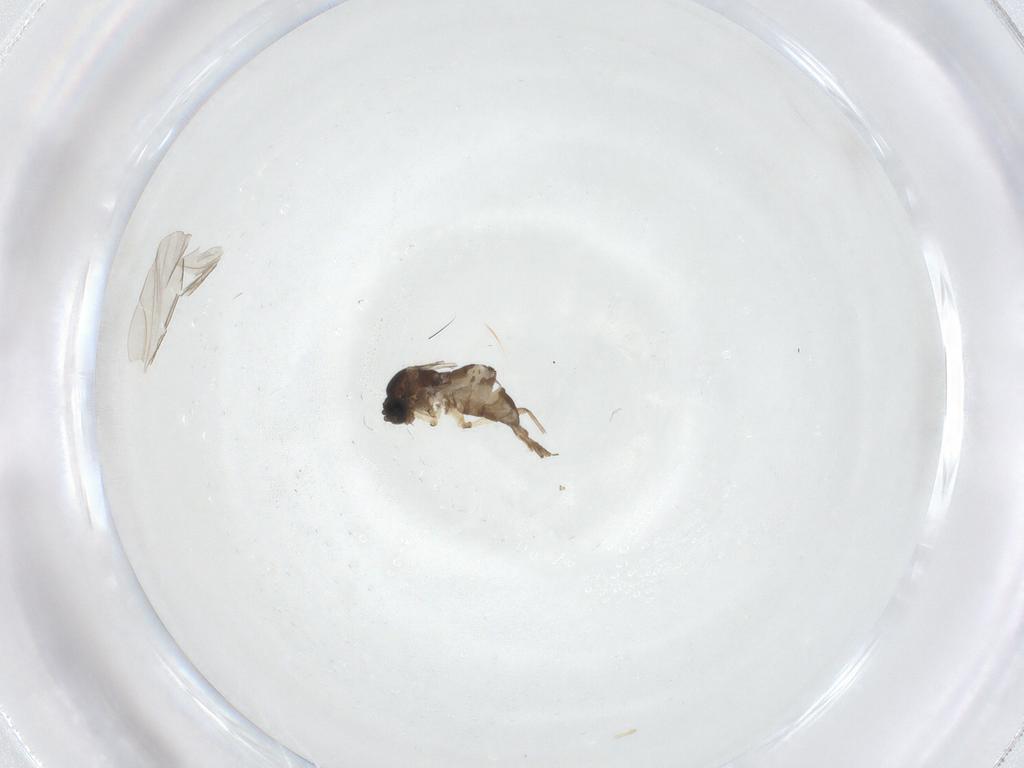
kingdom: Animalia
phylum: Arthropoda
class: Insecta
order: Diptera
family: Sciaridae
